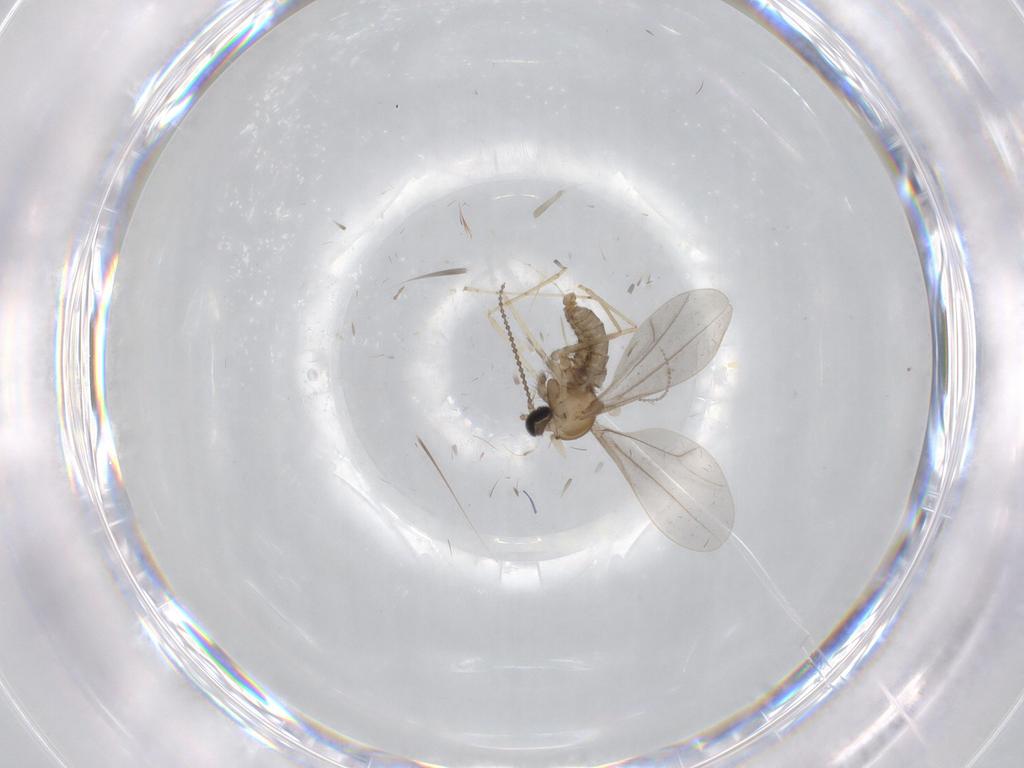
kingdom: Animalia
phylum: Arthropoda
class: Insecta
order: Diptera
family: Cecidomyiidae
